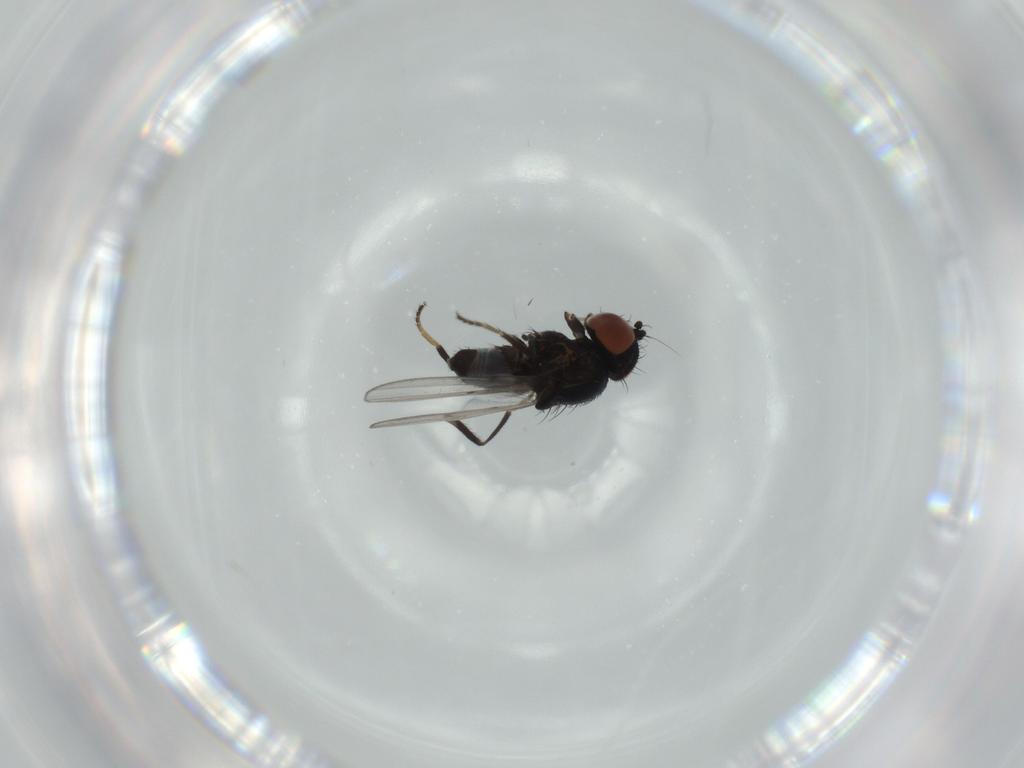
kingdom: Animalia
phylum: Arthropoda
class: Insecta
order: Diptera
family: Milichiidae
